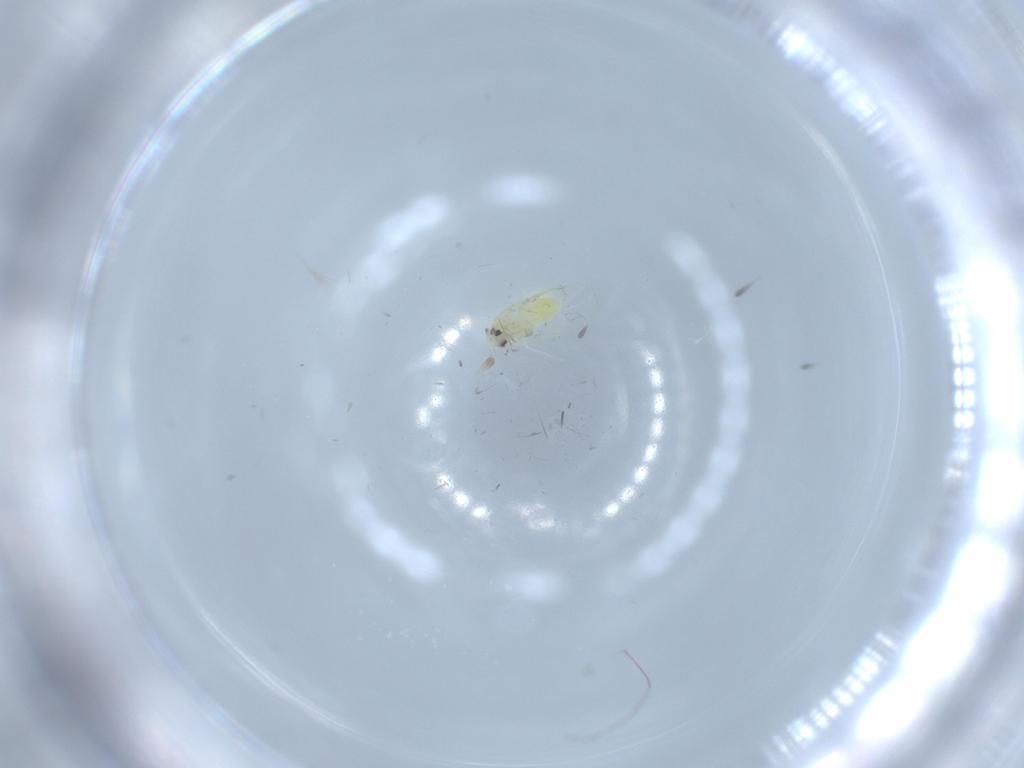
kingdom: Animalia
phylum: Arthropoda
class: Insecta
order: Hemiptera
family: Aleyrodidae
